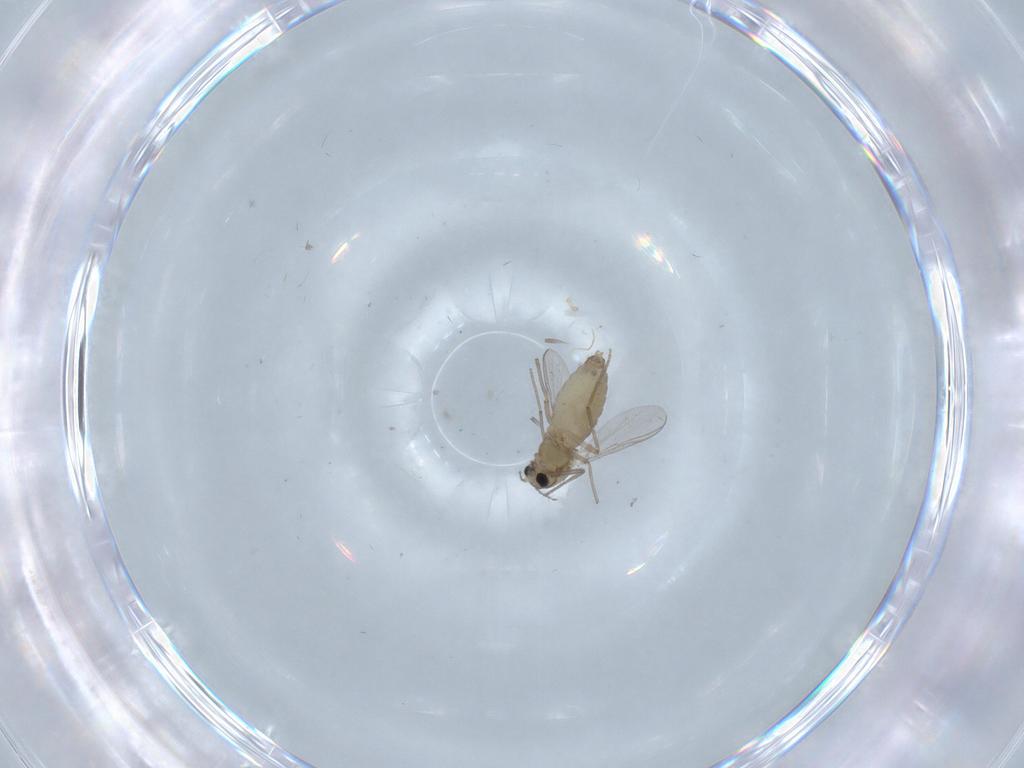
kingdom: Animalia
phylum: Arthropoda
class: Insecta
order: Diptera
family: Chironomidae
